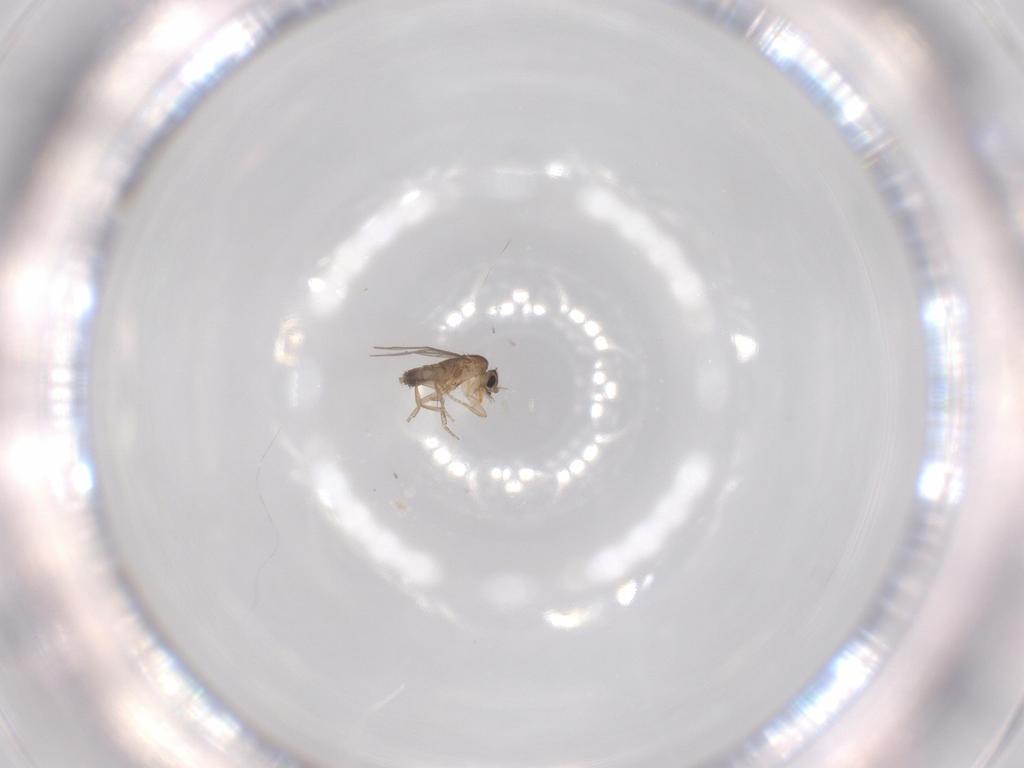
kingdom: Animalia
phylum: Arthropoda
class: Insecta
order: Diptera
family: Phoridae
